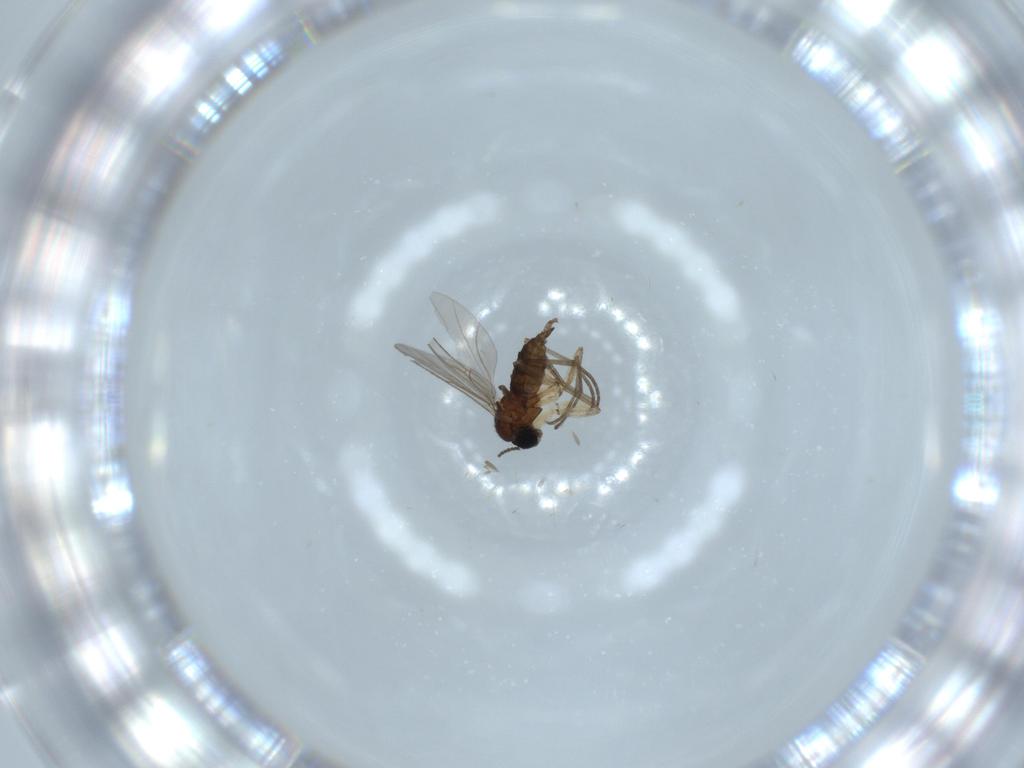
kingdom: Animalia
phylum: Arthropoda
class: Insecta
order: Diptera
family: Sciaridae
